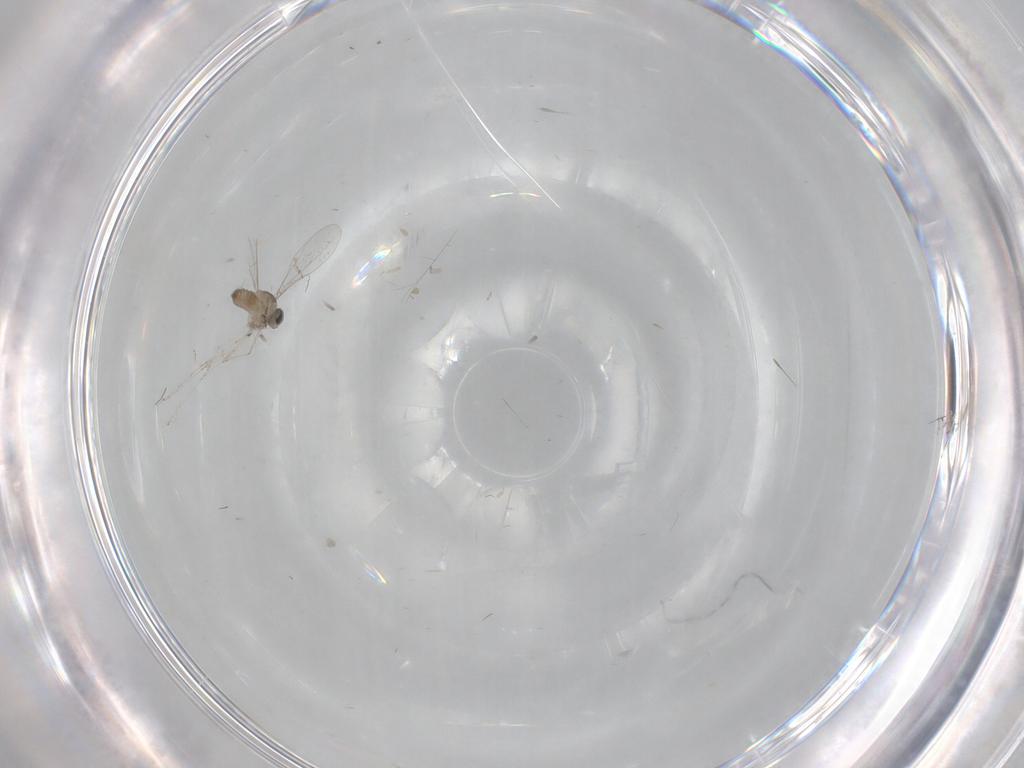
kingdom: Animalia
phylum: Arthropoda
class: Insecta
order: Diptera
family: Cecidomyiidae
